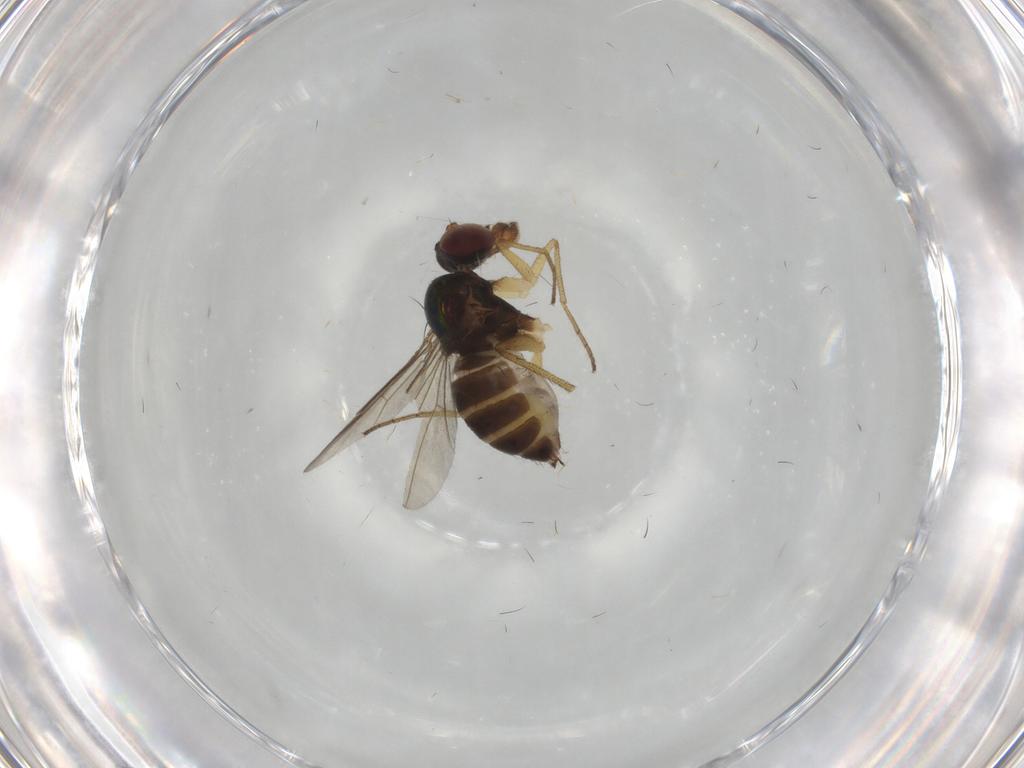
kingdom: Animalia
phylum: Arthropoda
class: Insecta
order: Diptera
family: Dolichopodidae
